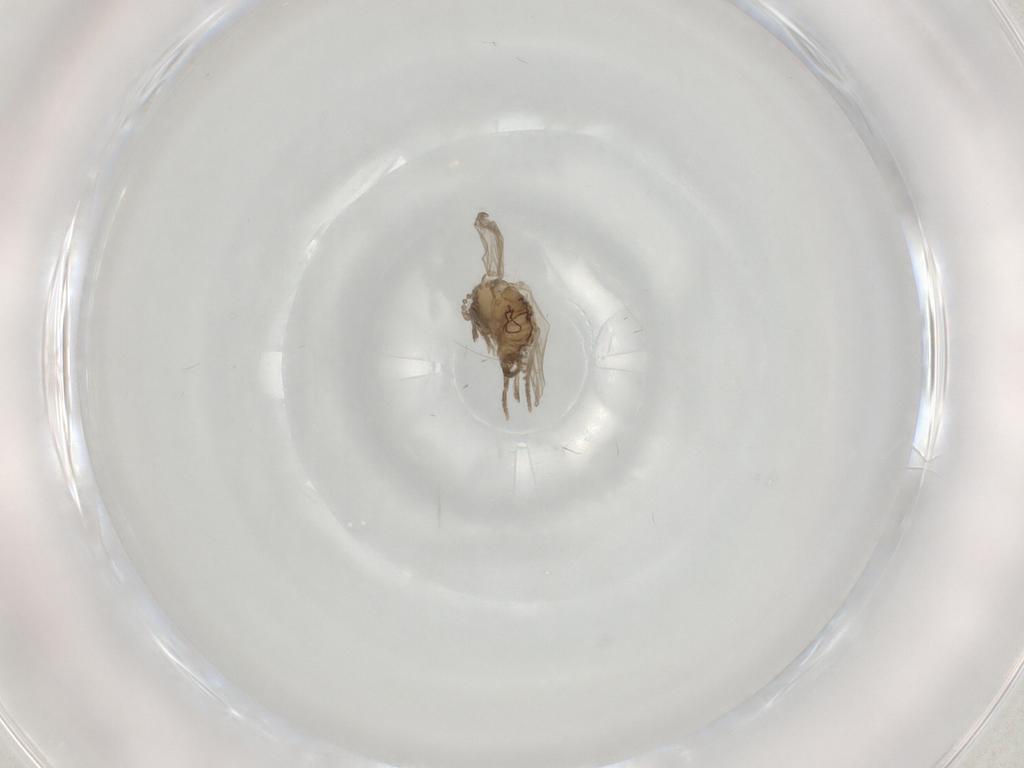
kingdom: Animalia
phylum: Arthropoda
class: Insecta
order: Diptera
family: Psychodidae
